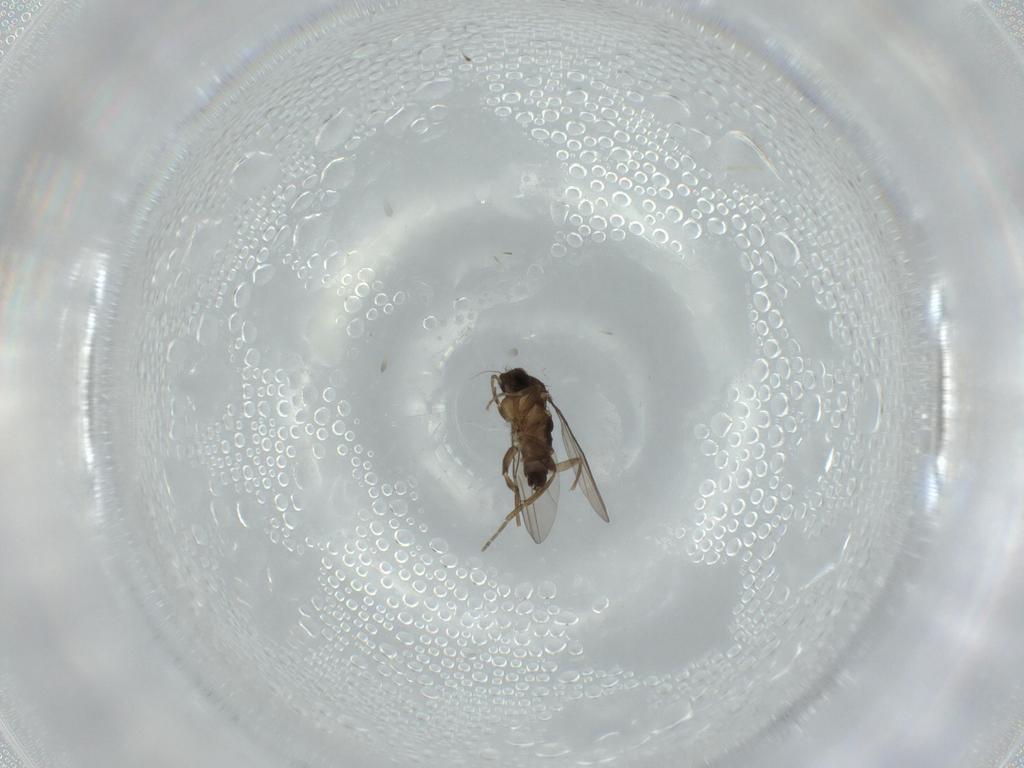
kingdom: Animalia
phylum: Arthropoda
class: Insecta
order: Diptera
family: Phoridae
